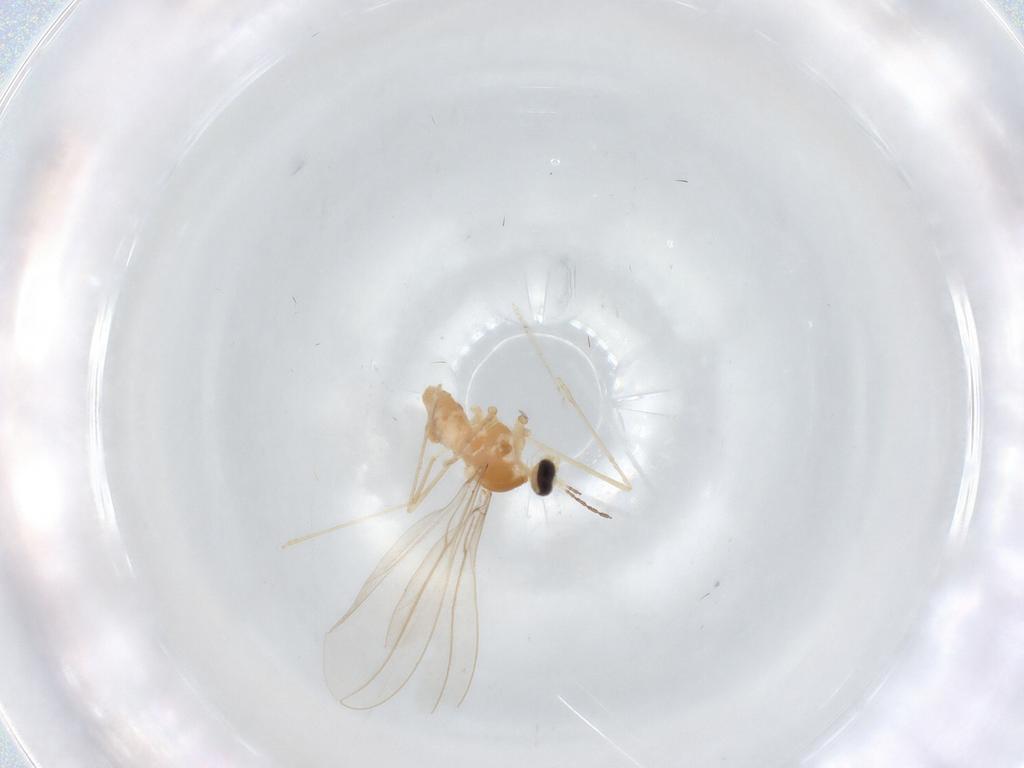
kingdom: Animalia
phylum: Arthropoda
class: Insecta
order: Diptera
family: Cecidomyiidae
